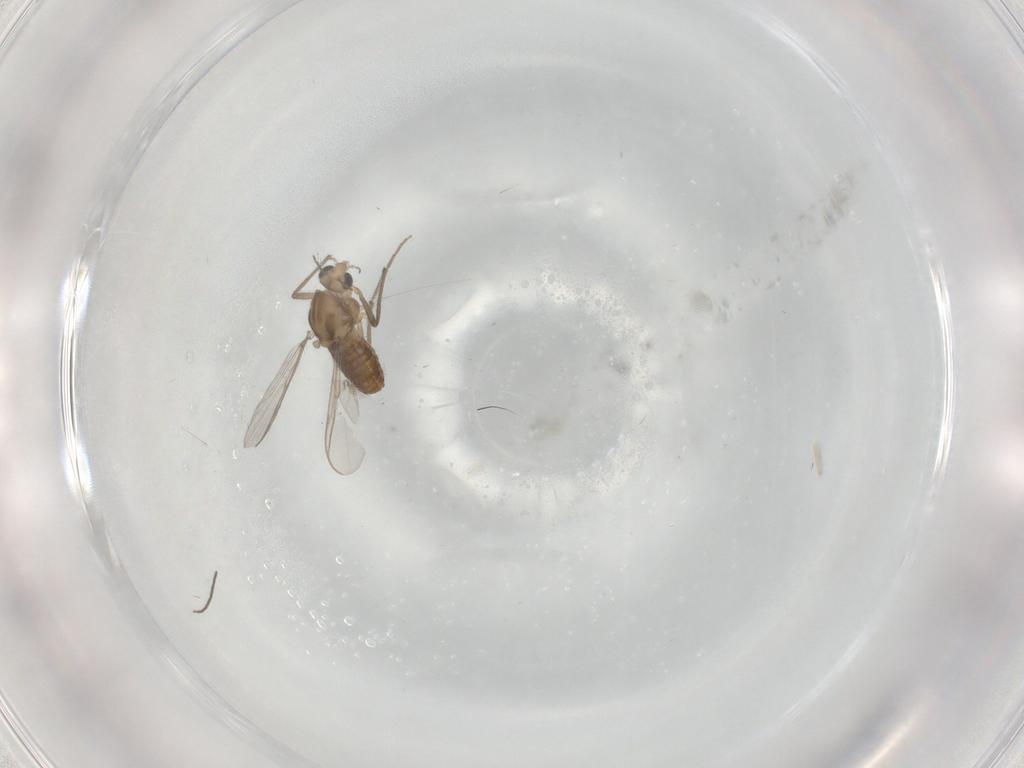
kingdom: Animalia
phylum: Arthropoda
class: Insecta
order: Diptera
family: Chironomidae
